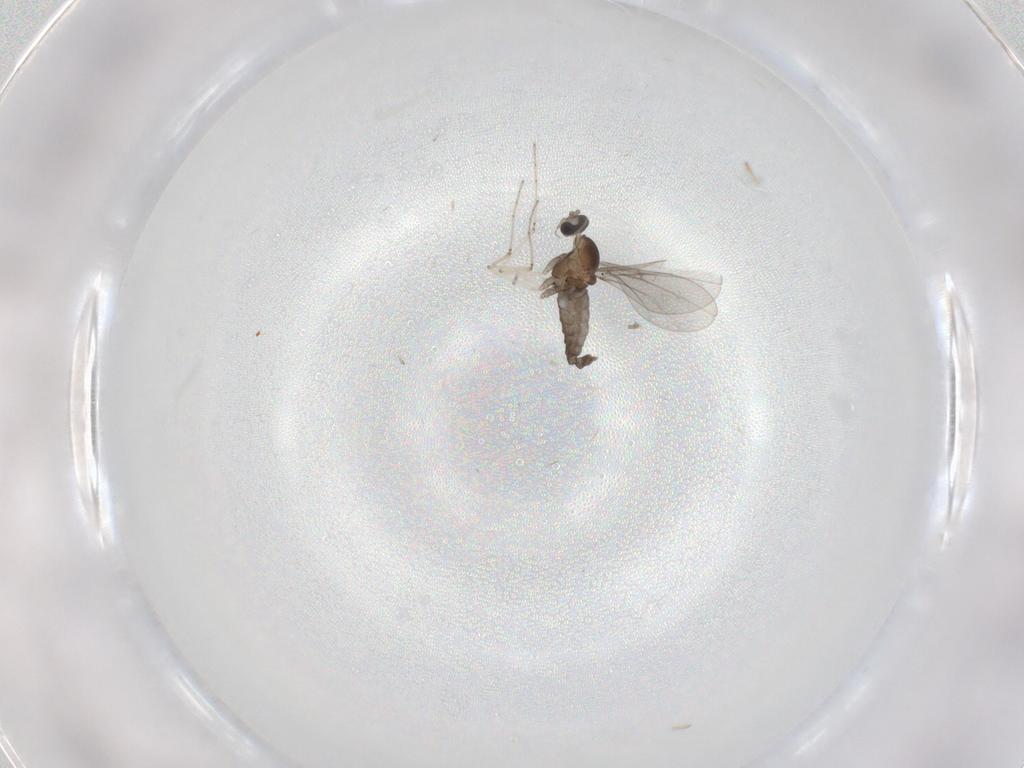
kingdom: Animalia
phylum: Arthropoda
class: Insecta
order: Diptera
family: Cecidomyiidae
